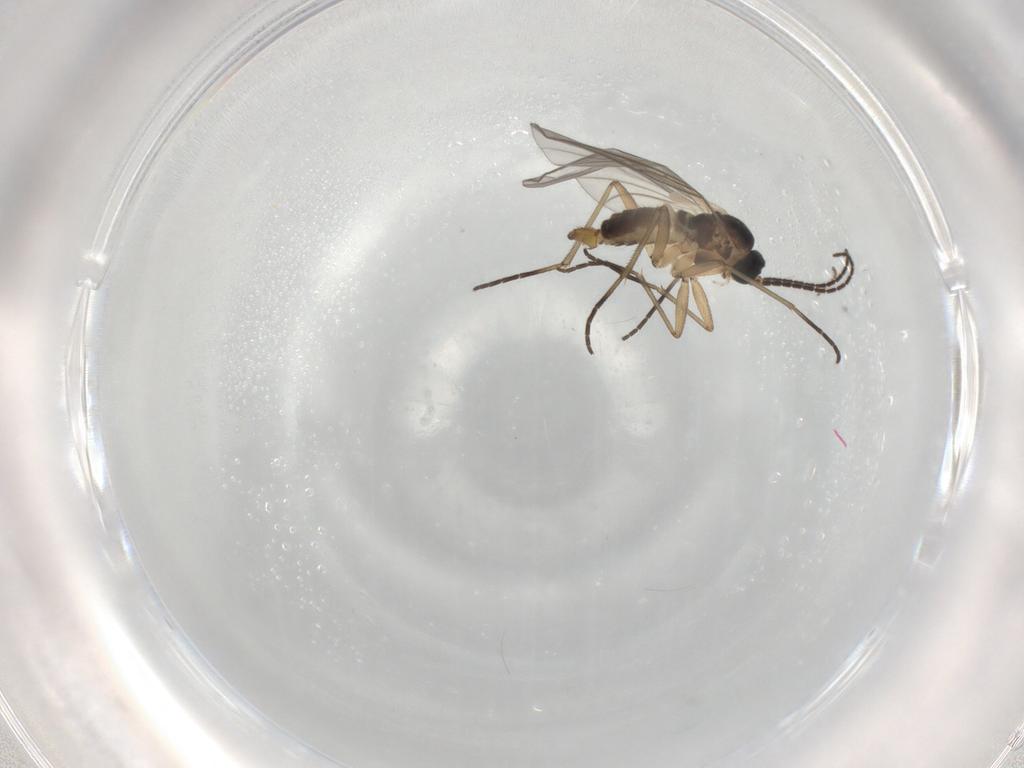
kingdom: Animalia
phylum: Arthropoda
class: Insecta
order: Diptera
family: Sciaridae
